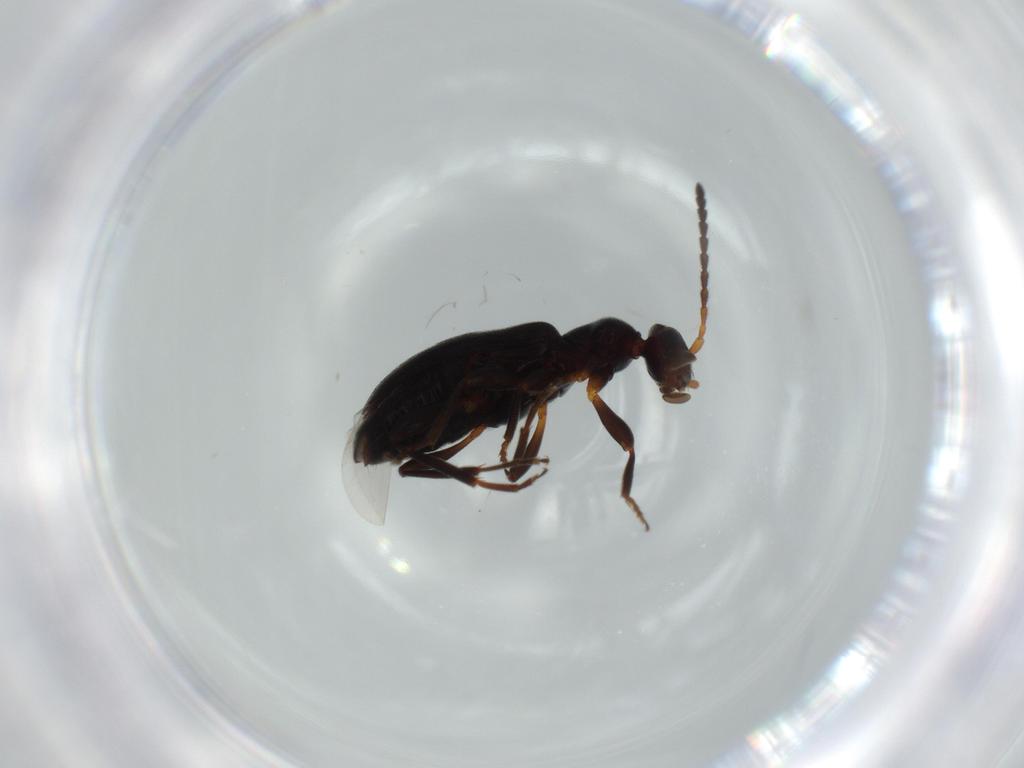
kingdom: Animalia
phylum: Arthropoda
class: Insecta
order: Coleoptera
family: Anthicidae
